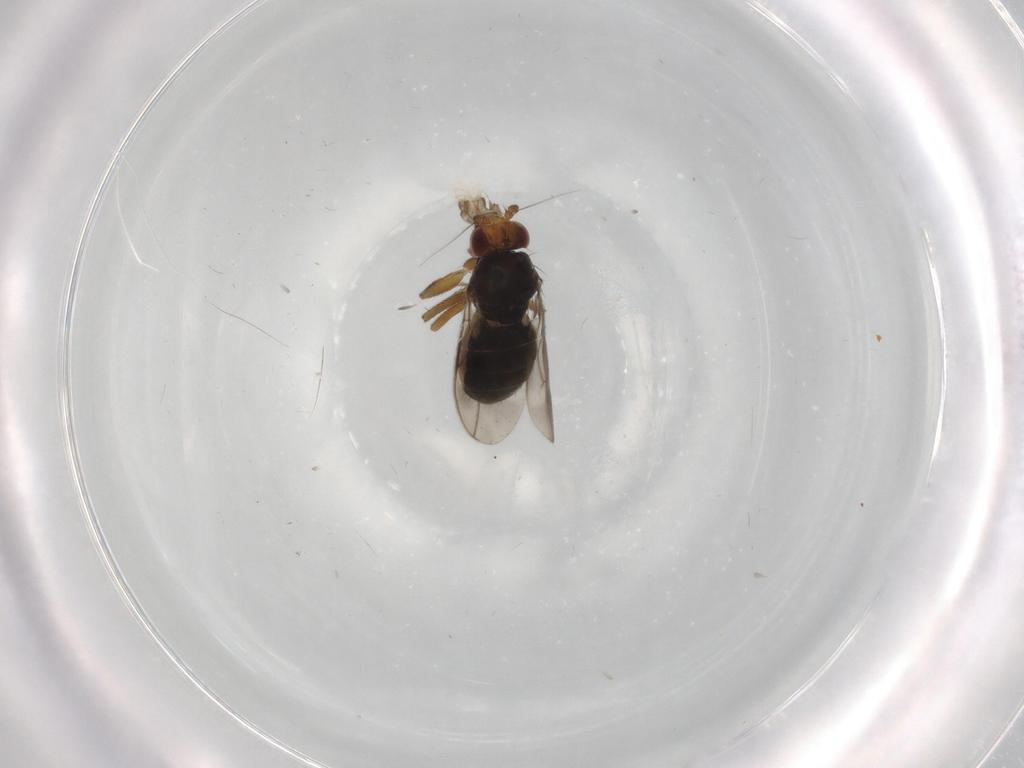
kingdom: Animalia
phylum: Arthropoda
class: Insecta
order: Diptera
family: Sphaeroceridae
